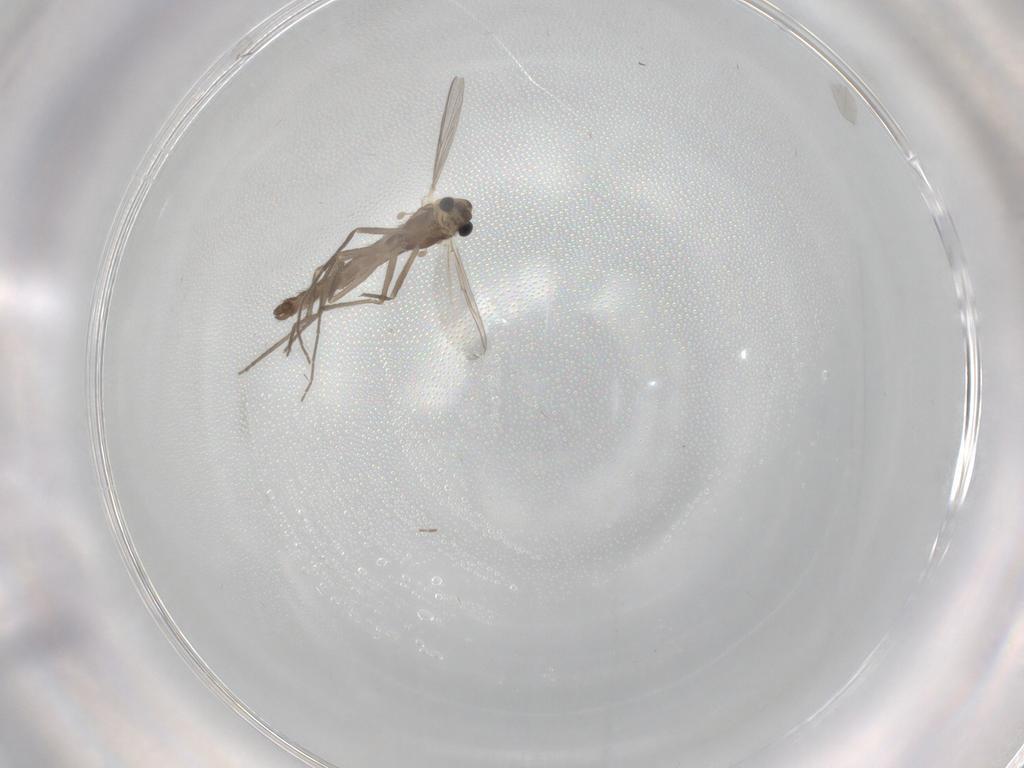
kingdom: Animalia
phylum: Arthropoda
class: Insecta
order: Diptera
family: Chironomidae
